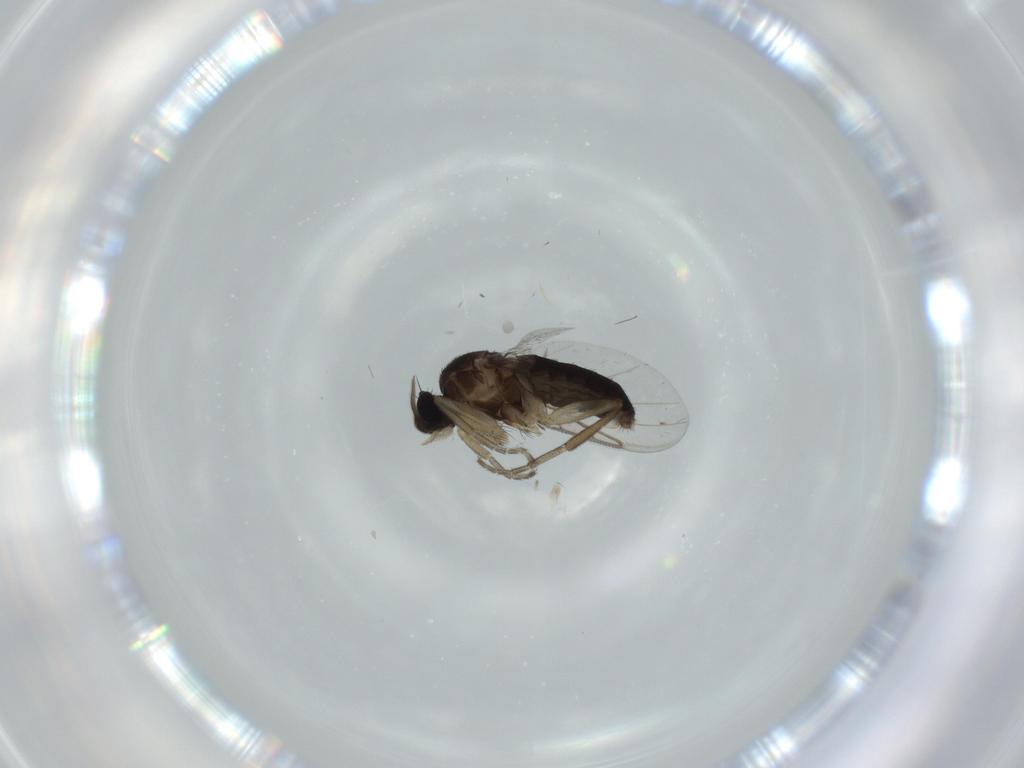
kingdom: Animalia
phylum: Arthropoda
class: Insecta
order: Diptera
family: Phoridae
